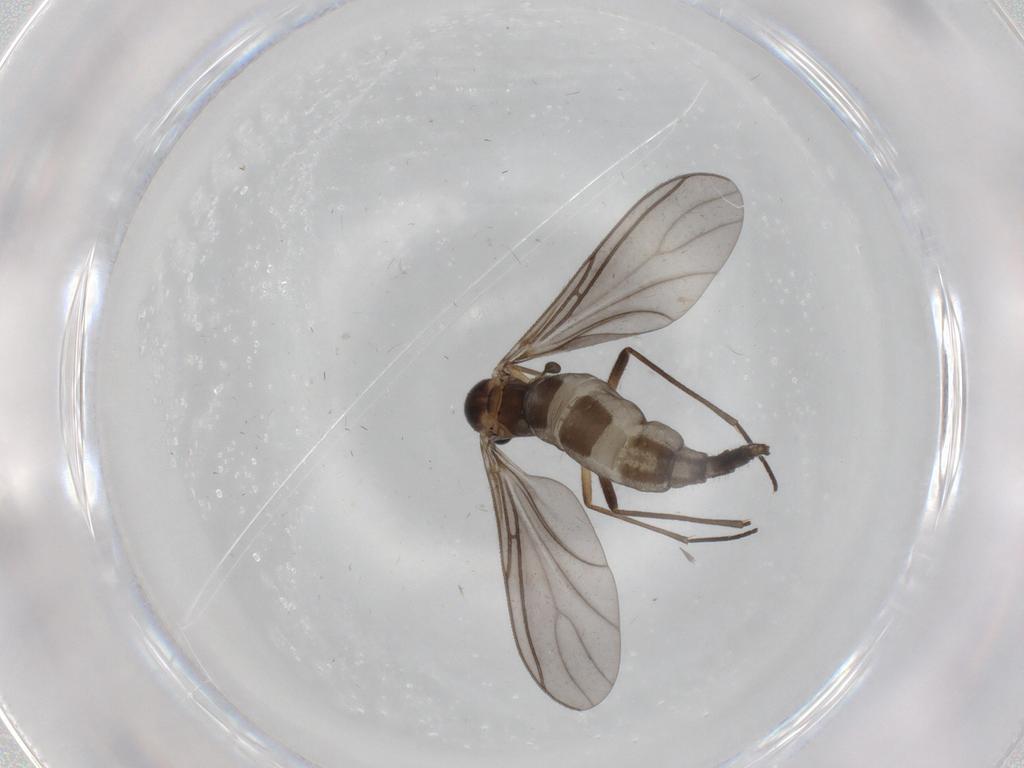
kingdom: Animalia
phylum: Arthropoda
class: Insecta
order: Diptera
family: Sciaridae
